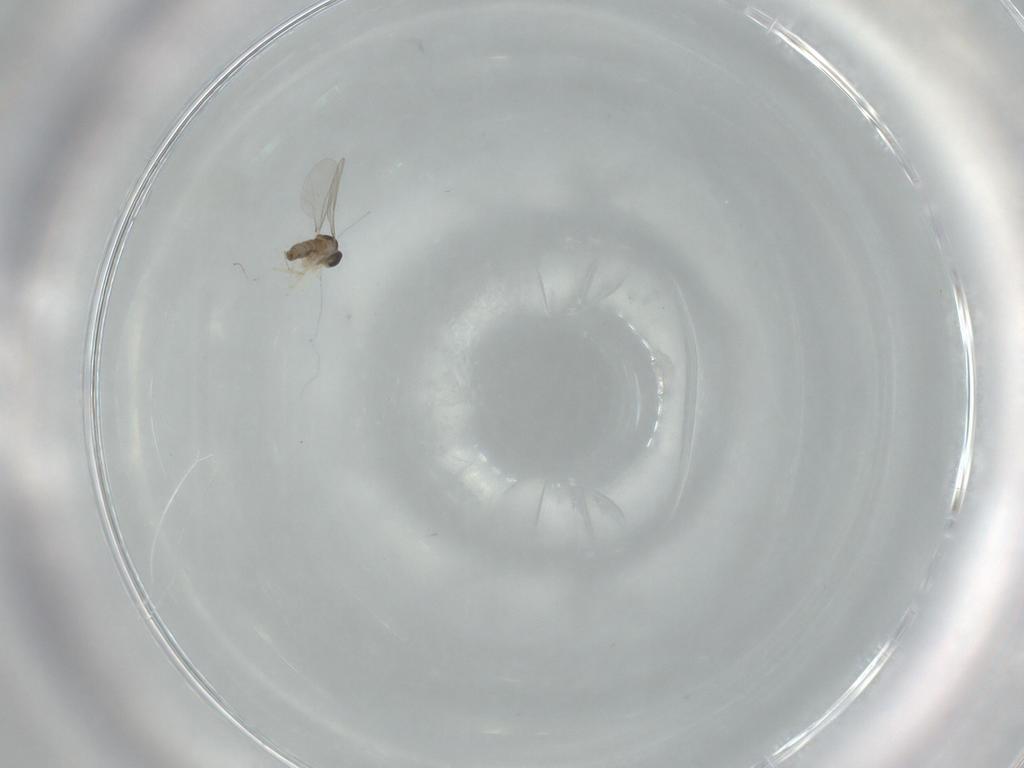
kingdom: Animalia
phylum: Arthropoda
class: Insecta
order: Diptera
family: Cecidomyiidae
